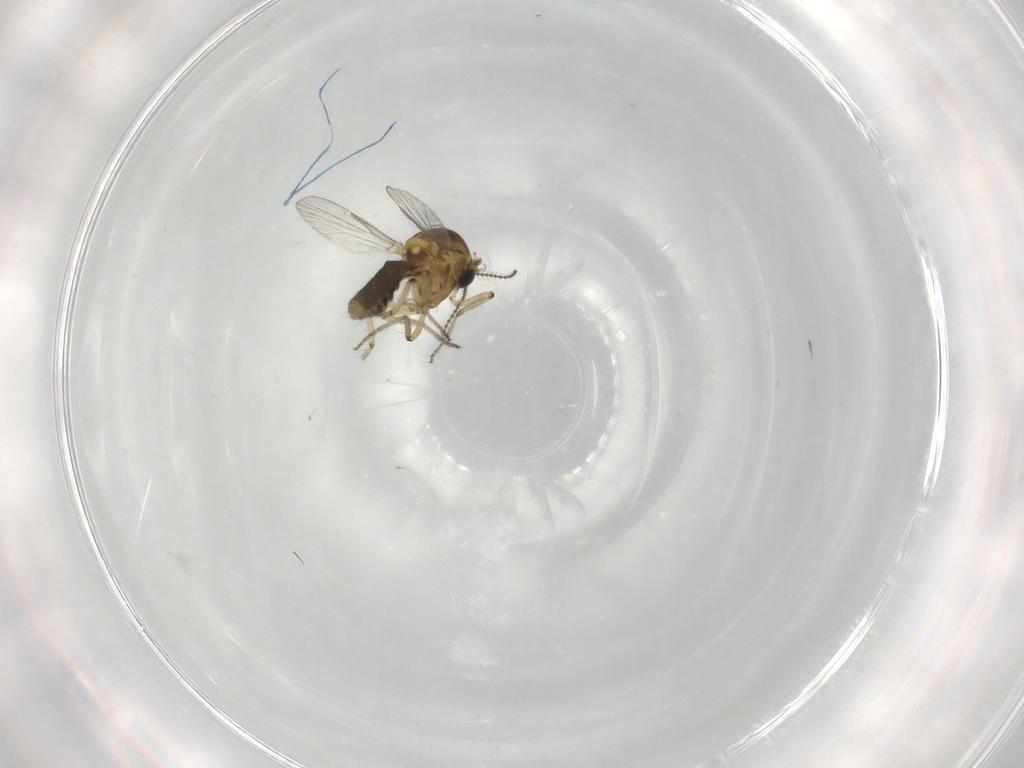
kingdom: Animalia
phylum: Arthropoda
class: Insecta
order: Diptera
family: Ceratopogonidae
